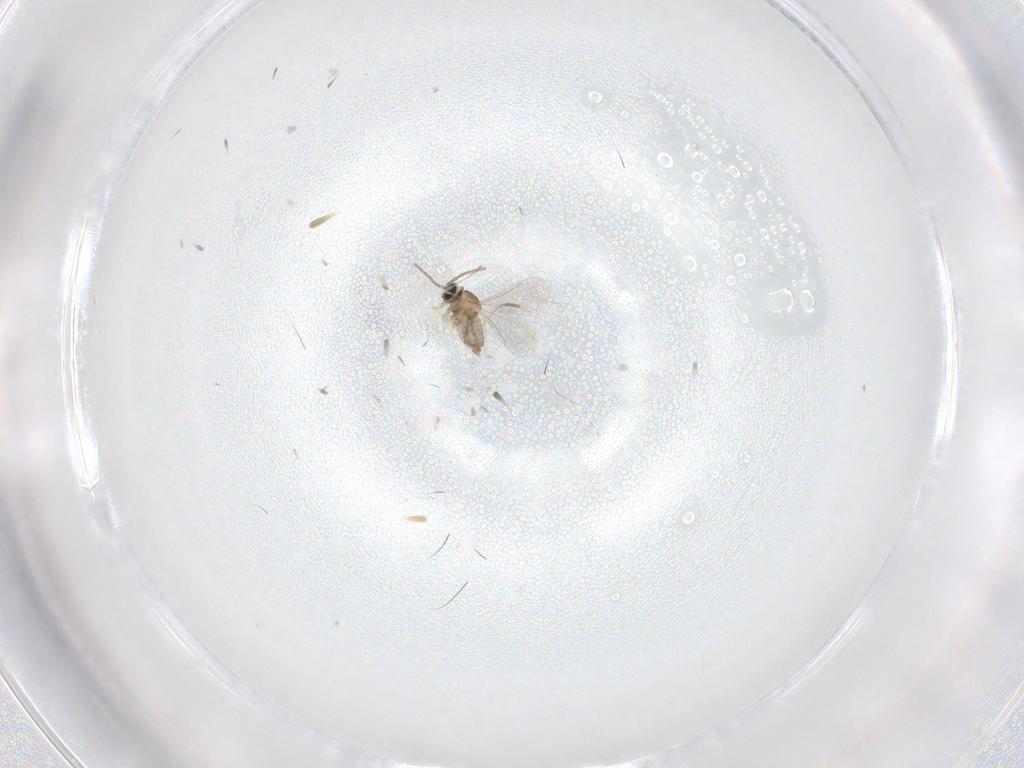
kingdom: Animalia
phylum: Arthropoda
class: Insecta
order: Diptera
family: Cecidomyiidae
